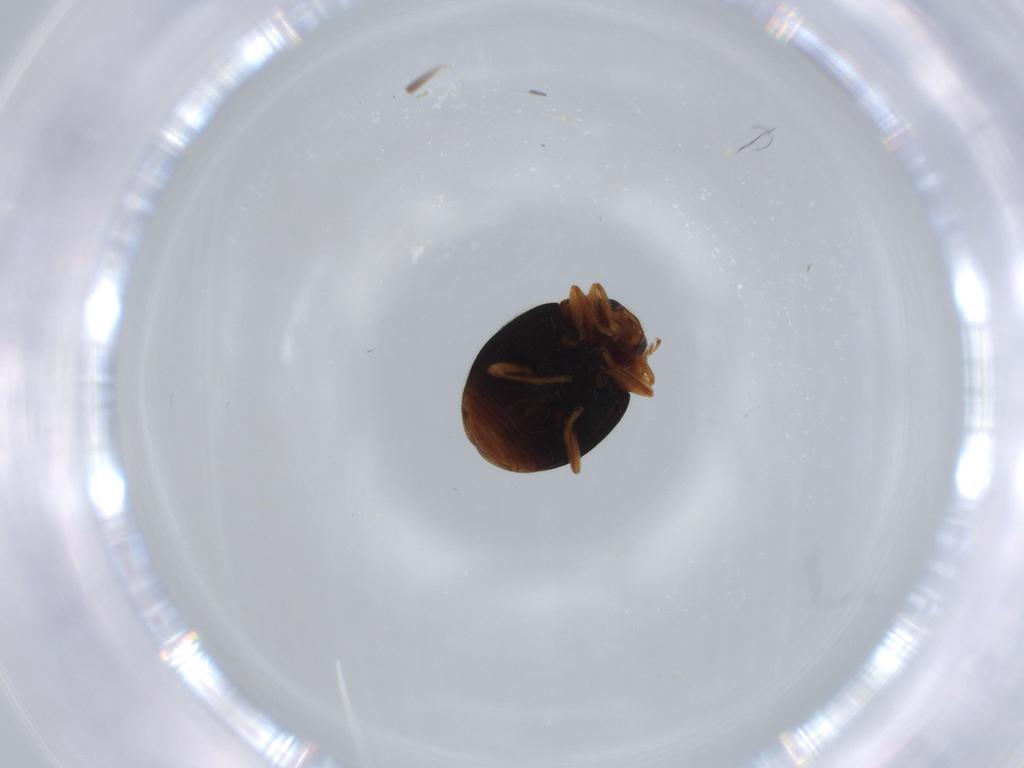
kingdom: Animalia
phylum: Arthropoda
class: Insecta
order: Coleoptera
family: Coccinellidae
